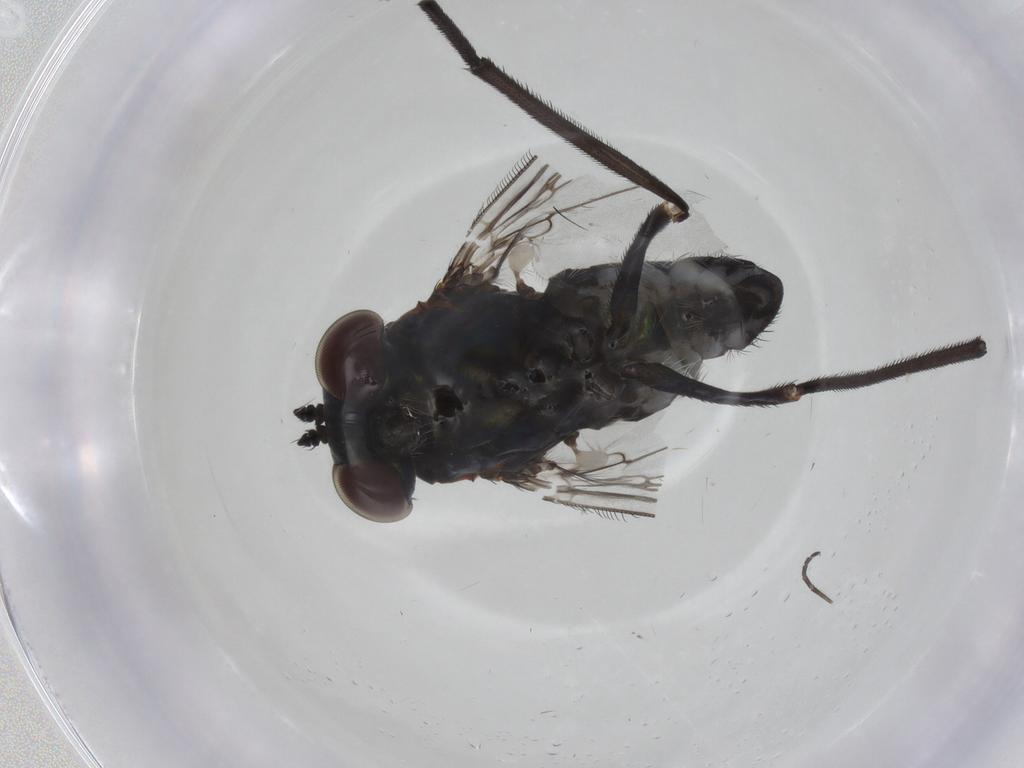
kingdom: Animalia
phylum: Arthropoda
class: Insecta
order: Diptera
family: Dolichopodidae
